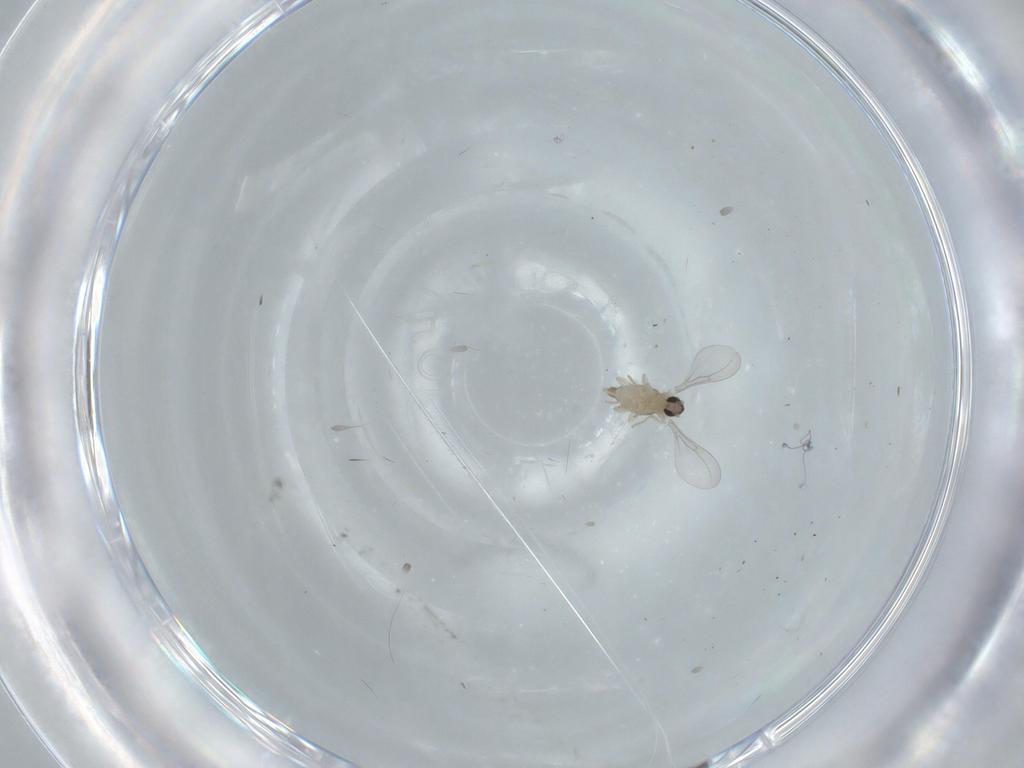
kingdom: Animalia
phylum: Arthropoda
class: Insecta
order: Diptera
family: Cecidomyiidae
